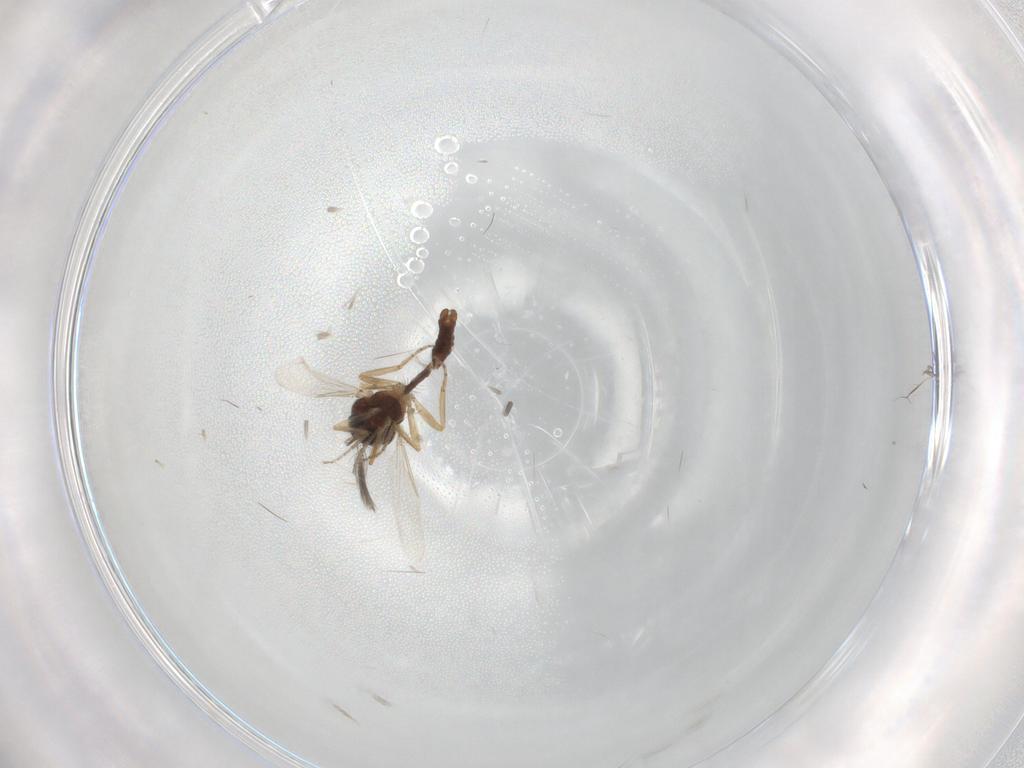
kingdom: Animalia
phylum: Arthropoda
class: Insecta
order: Diptera
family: Ceratopogonidae
